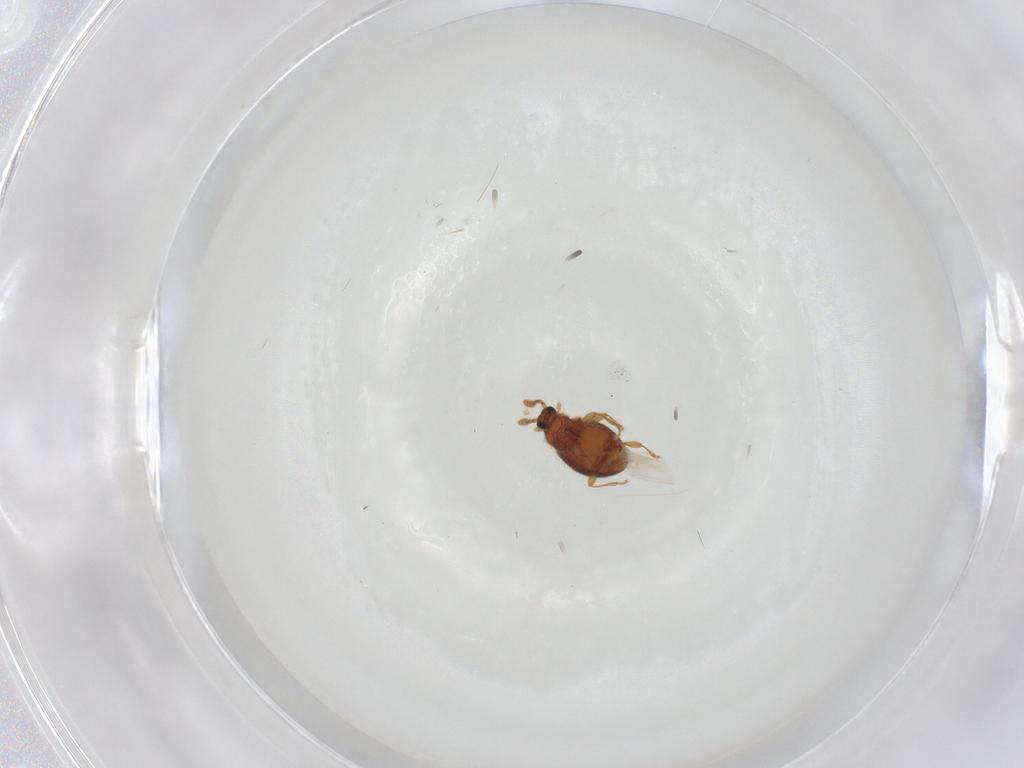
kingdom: Animalia
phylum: Arthropoda
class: Insecta
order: Coleoptera
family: Staphylinidae
